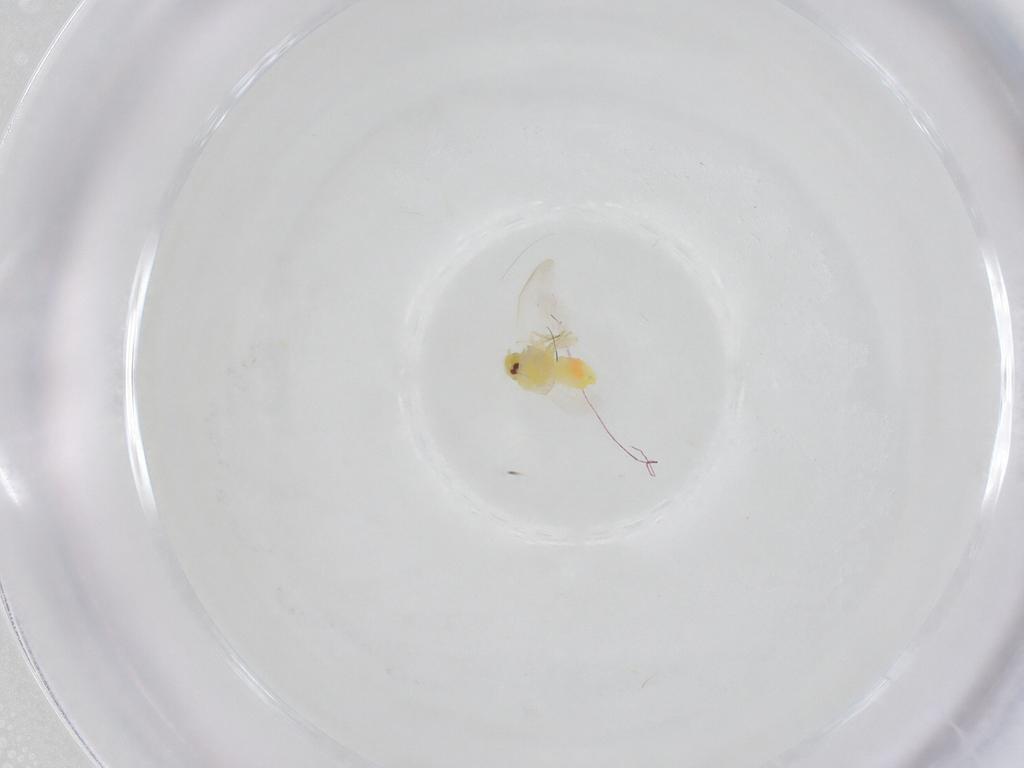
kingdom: Animalia
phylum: Arthropoda
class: Insecta
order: Hemiptera
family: Aleyrodidae
